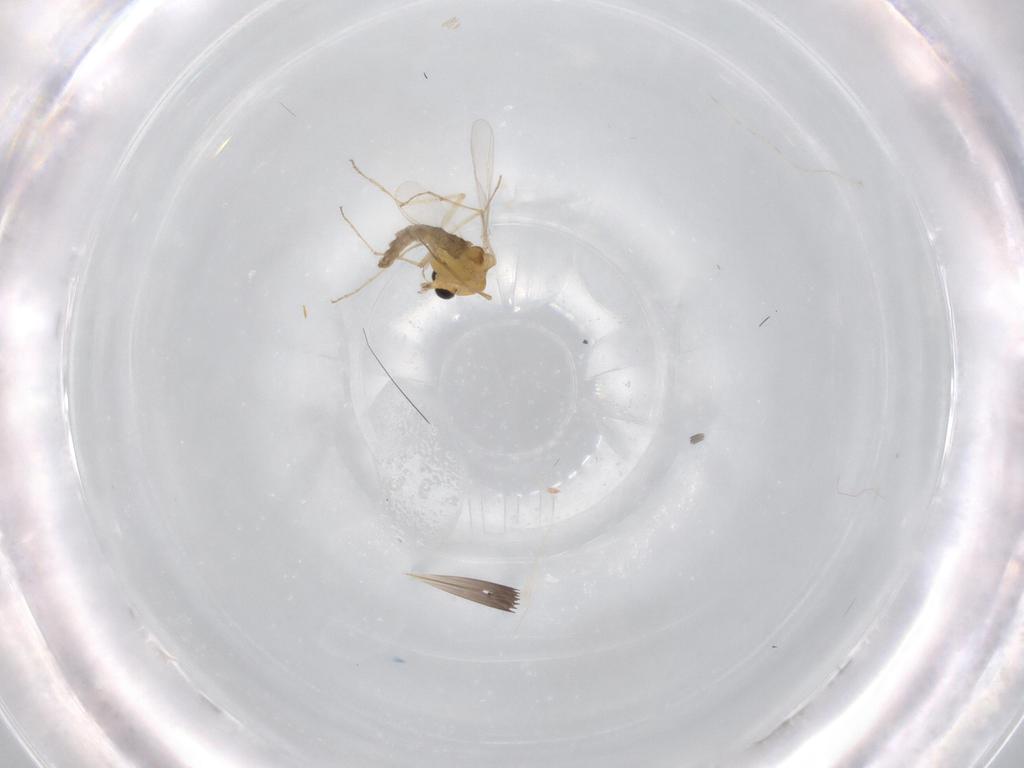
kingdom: Animalia
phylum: Arthropoda
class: Insecta
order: Diptera
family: Chironomidae
